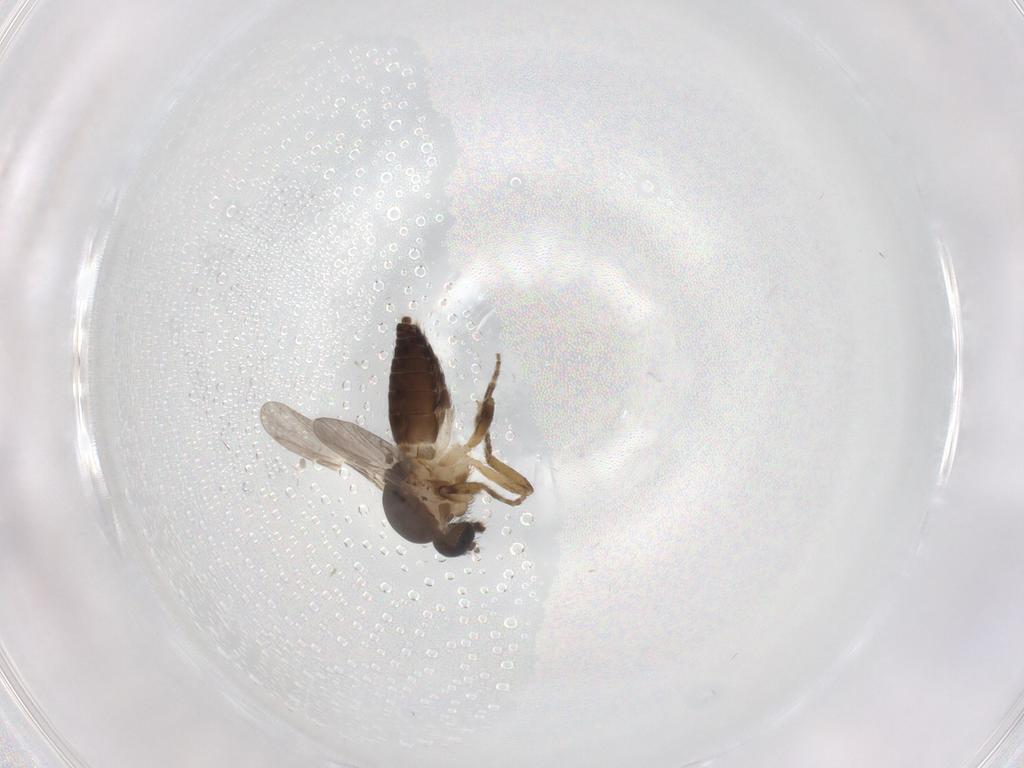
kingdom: Animalia
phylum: Arthropoda
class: Insecta
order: Diptera
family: Ceratopogonidae
